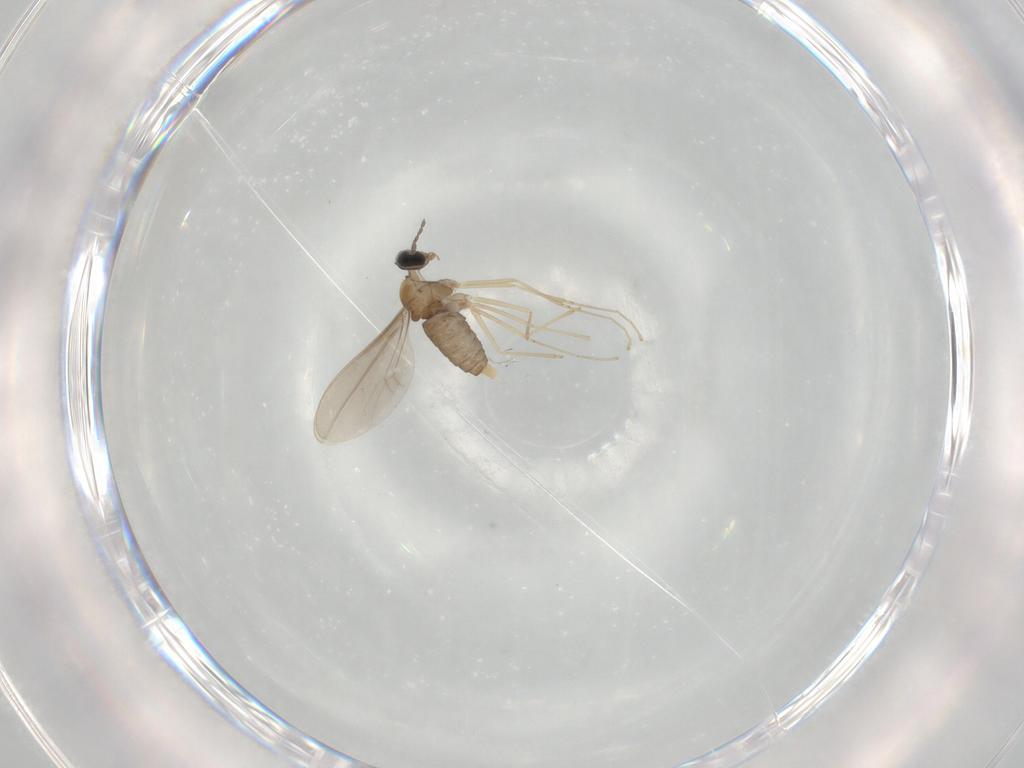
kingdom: Animalia
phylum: Arthropoda
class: Insecta
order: Diptera
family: Cecidomyiidae
